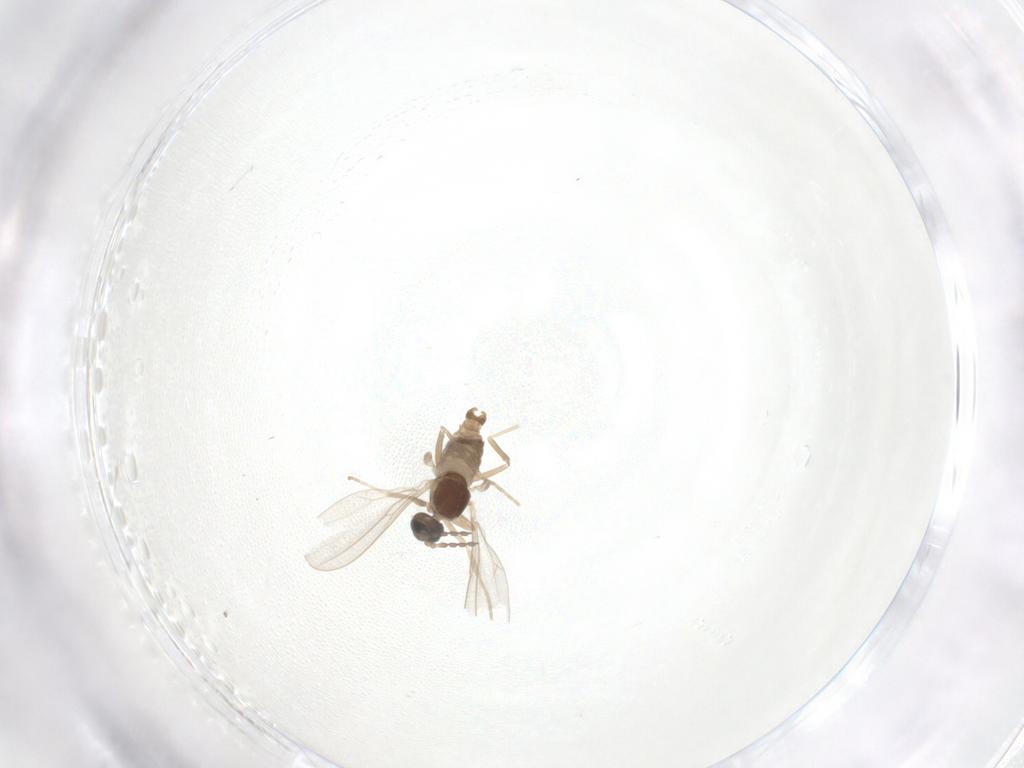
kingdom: Animalia
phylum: Arthropoda
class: Insecta
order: Diptera
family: Cecidomyiidae
